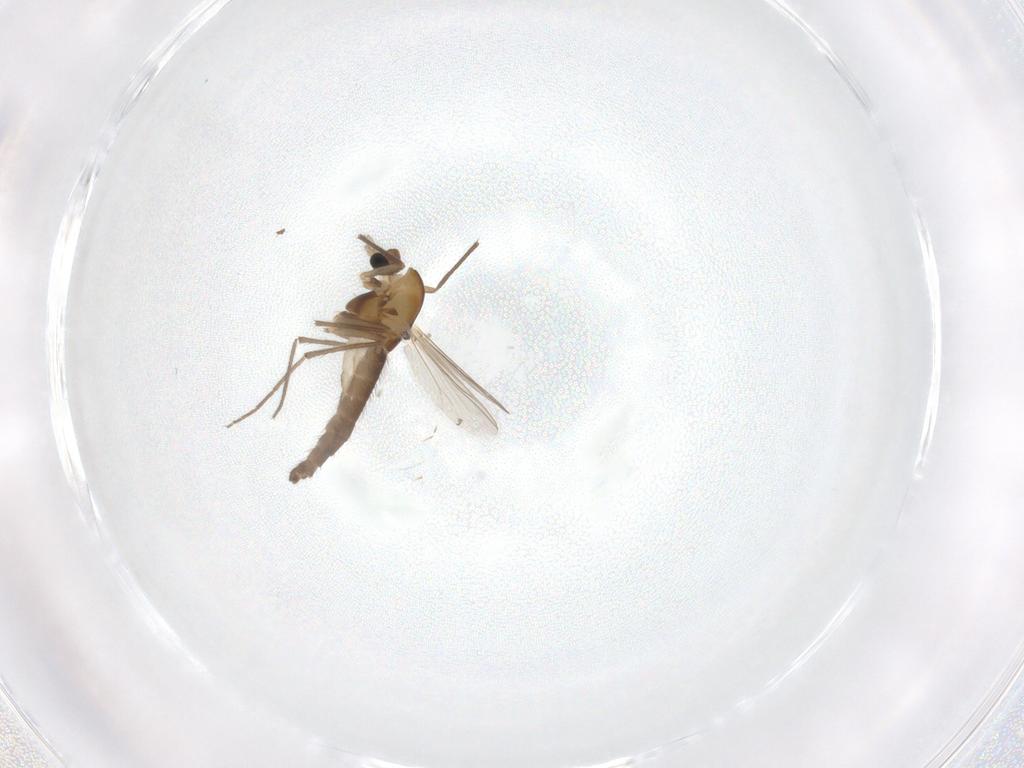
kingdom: Animalia
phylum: Arthropoda
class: Insecta
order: Diptera
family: Chironomidae
